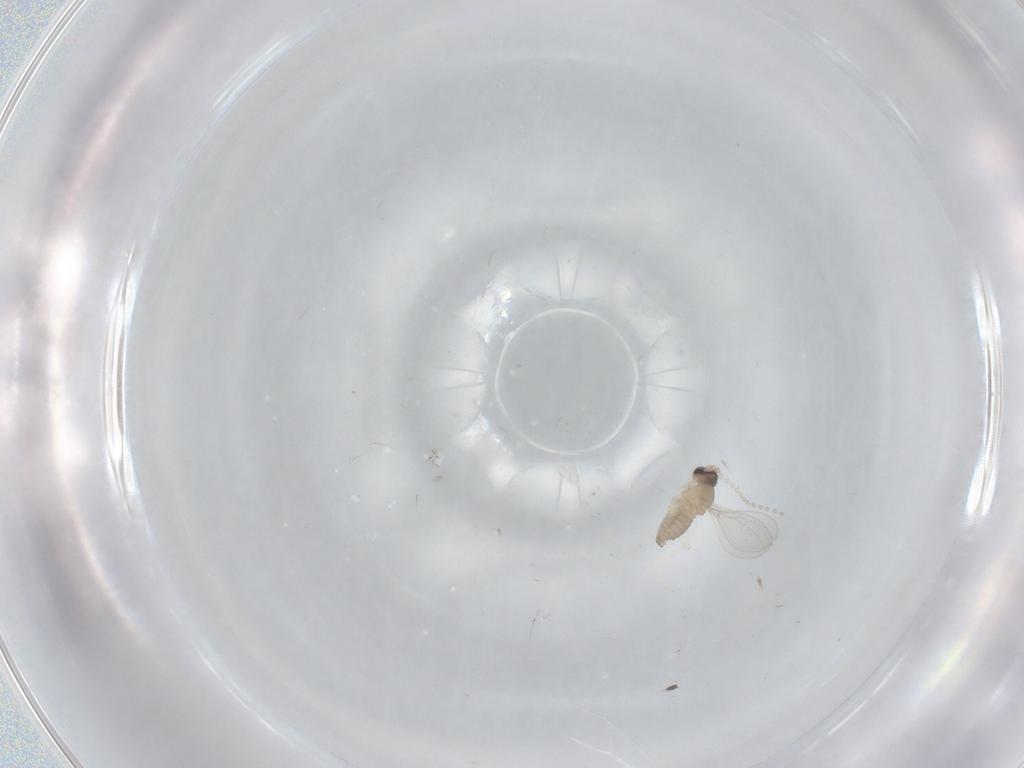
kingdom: Animalia
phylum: Arthropoda
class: Insecta
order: Diptera
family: Cecidomyiidae
